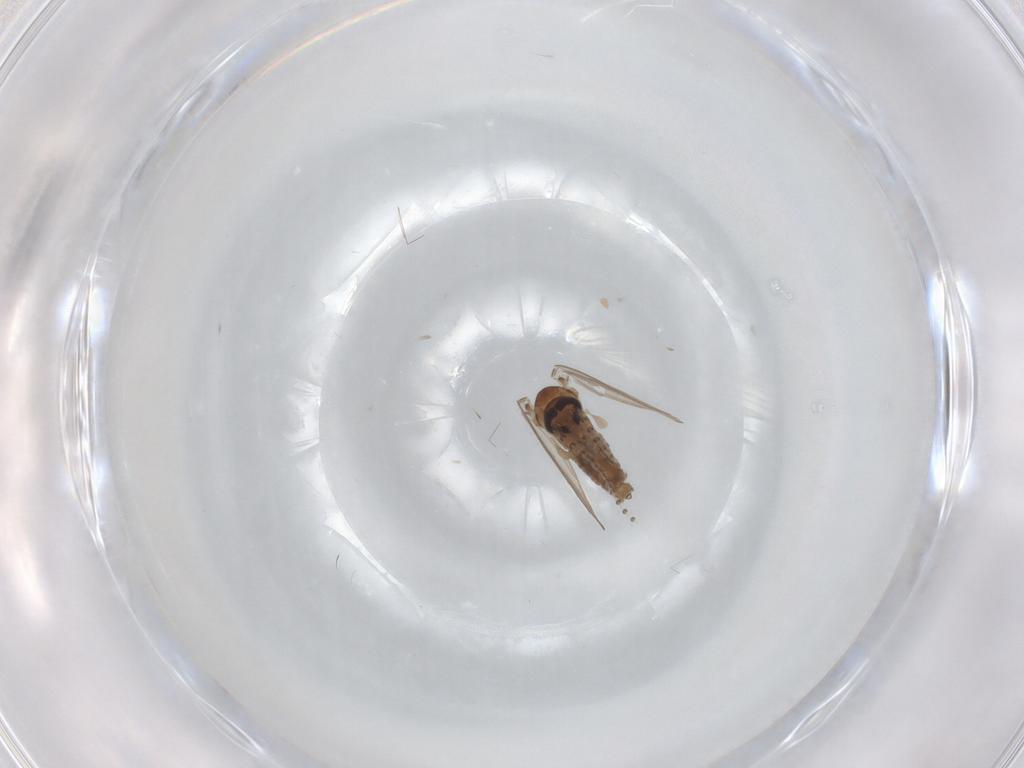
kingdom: Animalia
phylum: Arthropoda
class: Insecta
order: Diptera
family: Psychodidae
